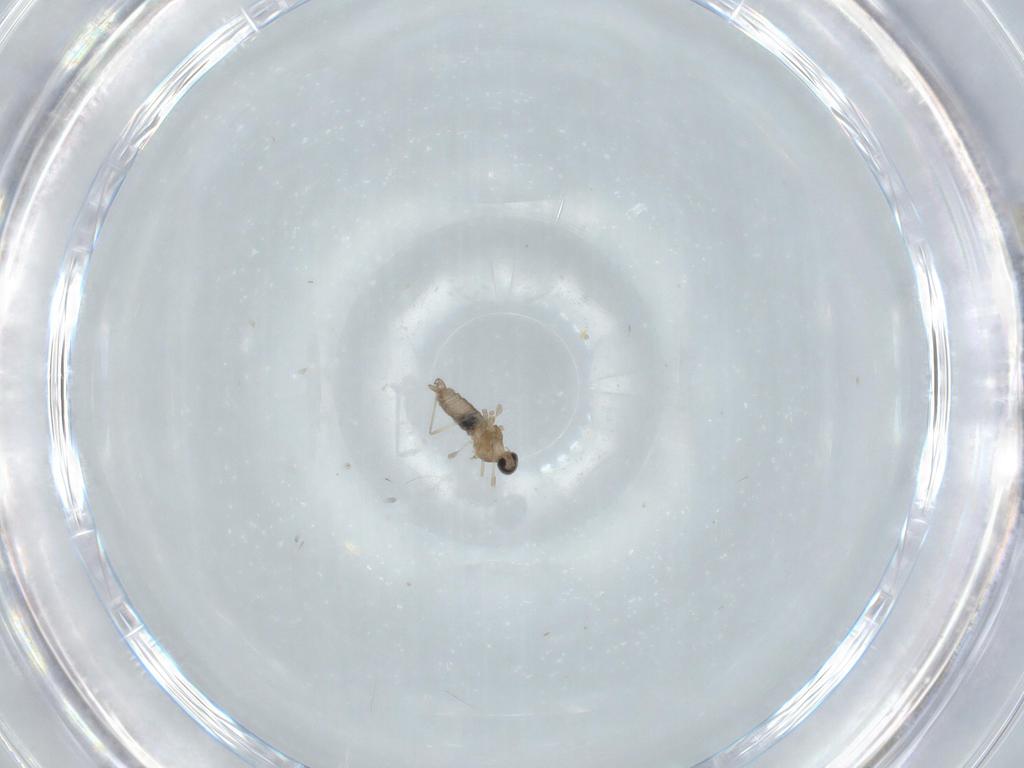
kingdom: Animalia
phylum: Arthropoda
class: Insecta
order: Diptera
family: Cecidomyiidae
